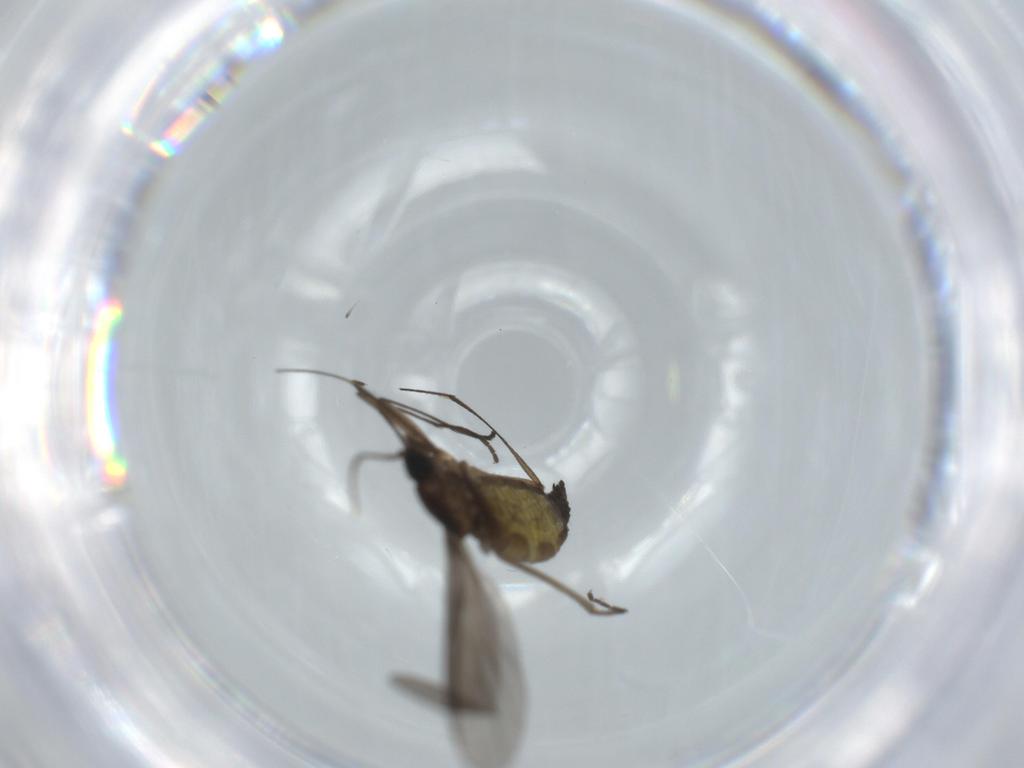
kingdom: Animalia
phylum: Arthropoda
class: Insecta
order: Diptera
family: Sciaridae
